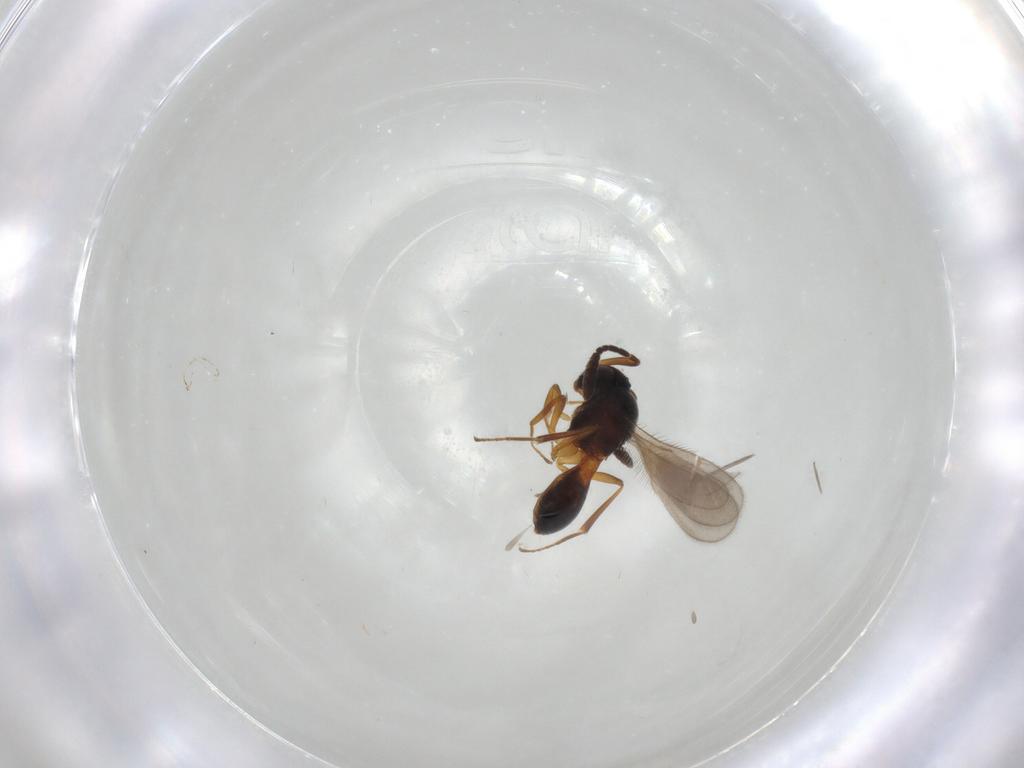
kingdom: Animalia
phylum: Arthropoda
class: Insecta
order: Hymenoptera
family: Scelionidae
